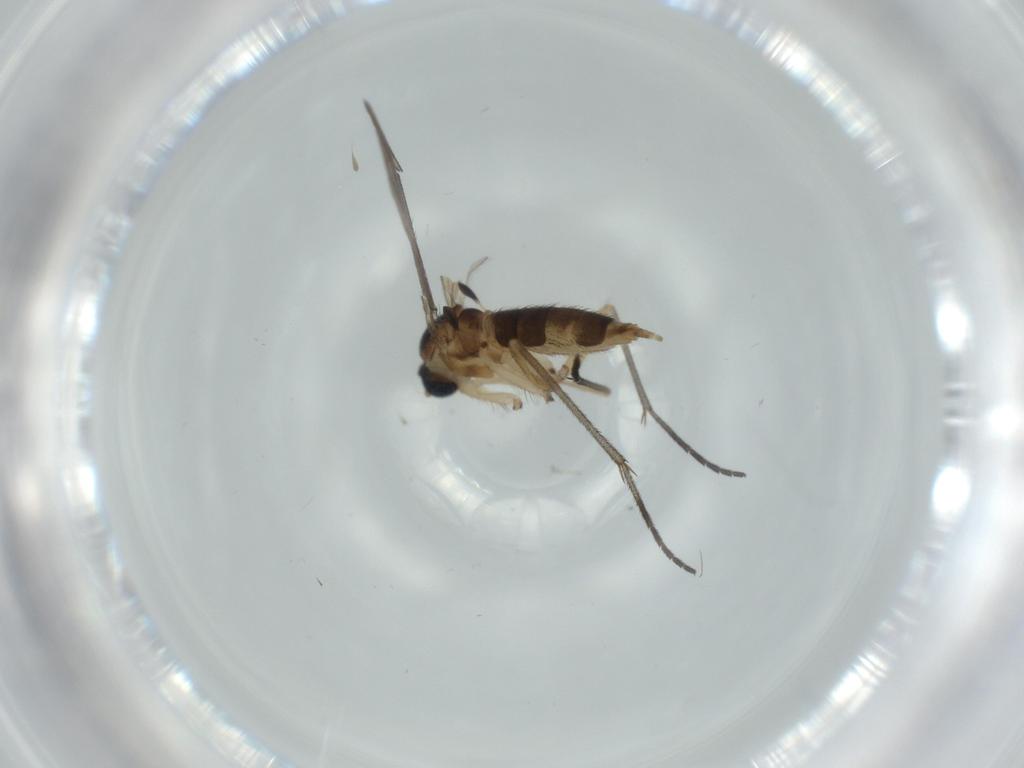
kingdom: Animalia
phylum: Arthropoda
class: Insecta
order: Diptera
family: Sciaridae
